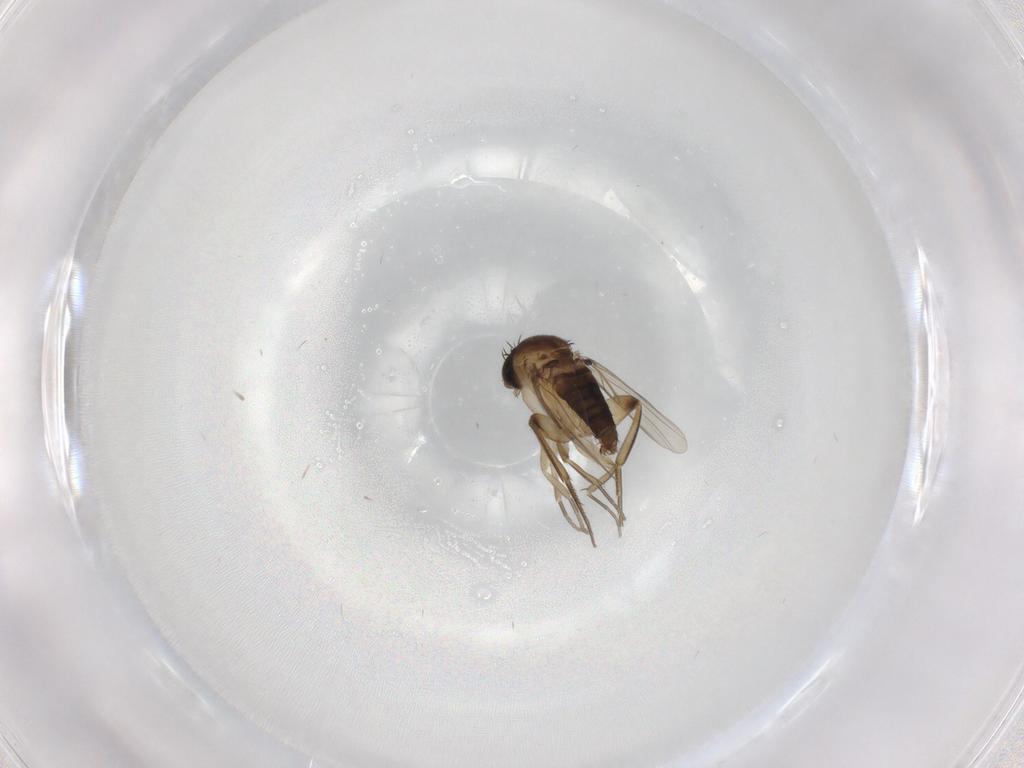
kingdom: Animalia
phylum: Arthropoda
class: Insecta
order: Diptera
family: Phoridae
